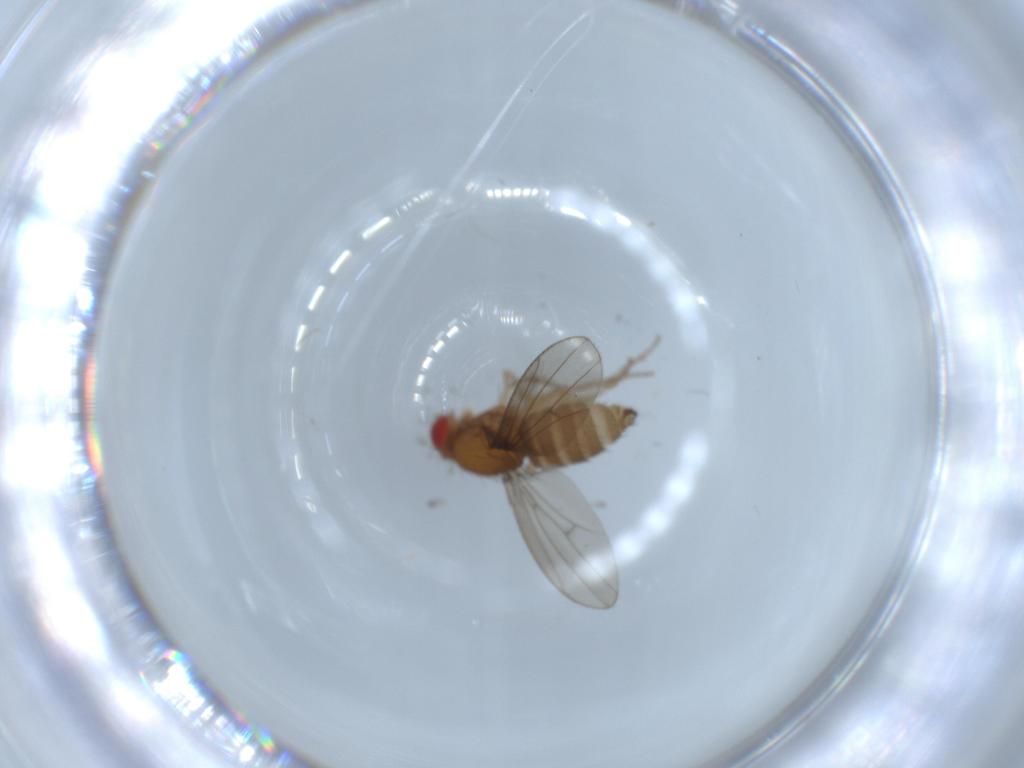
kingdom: Animalia
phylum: Arthropoda
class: Insecta
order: Diptera
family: Drosophilidae
